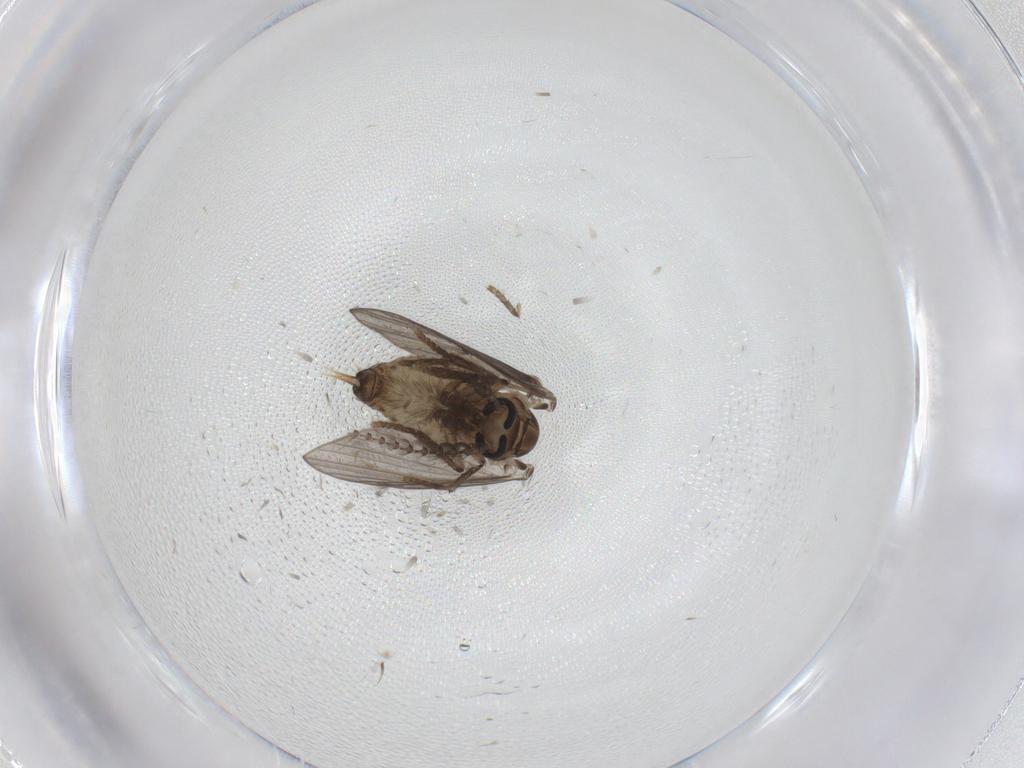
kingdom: Animalia
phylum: Arthropoda
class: Insecta
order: Diptera
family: Psychodidae
